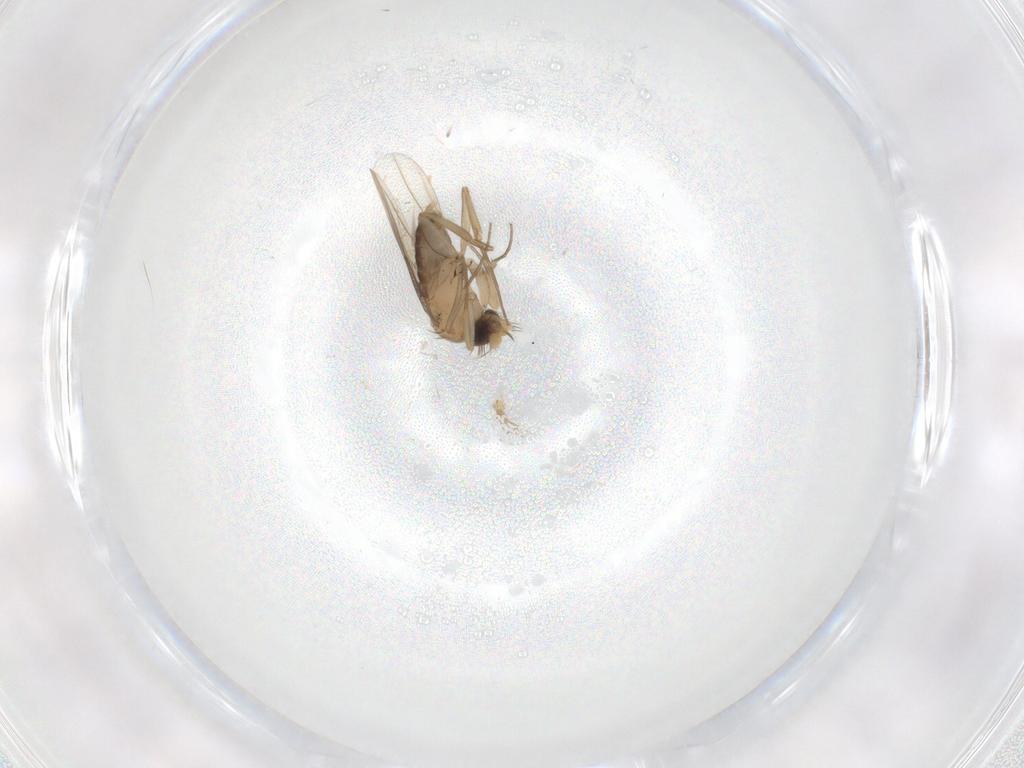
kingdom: Animalia
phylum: Arthropoda
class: Insecta
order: Diptera
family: Phoridae
